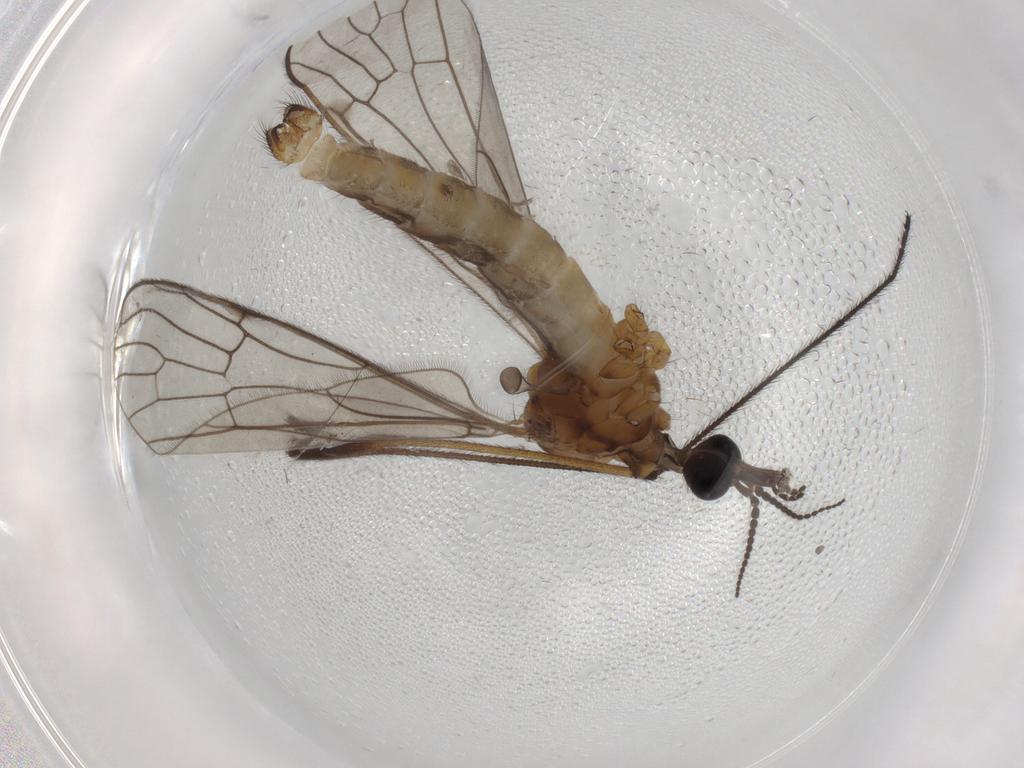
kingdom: Animalia
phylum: Arthropoda
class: Insecta
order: Diptera
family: Limoniidae
